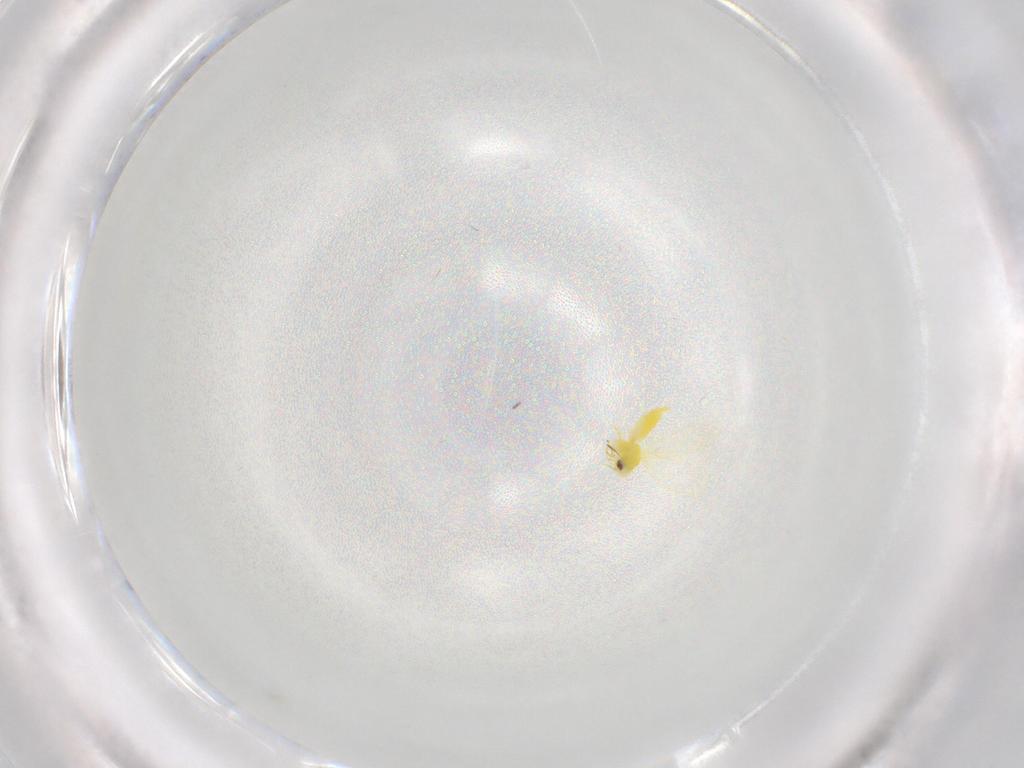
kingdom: Animalia
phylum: Arthropoda
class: Insecta
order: Hemiptera
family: Aleyrodidae
